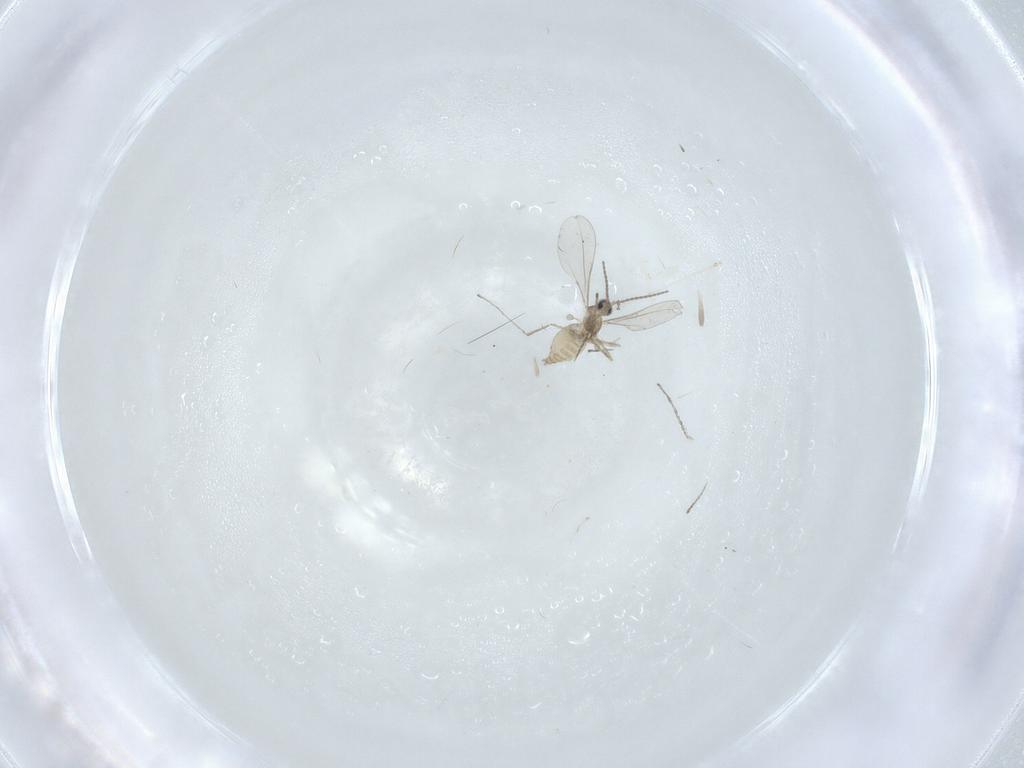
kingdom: Animalia
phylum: Arthropoda
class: Insecta
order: Diptera
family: Cecidomyiidae
